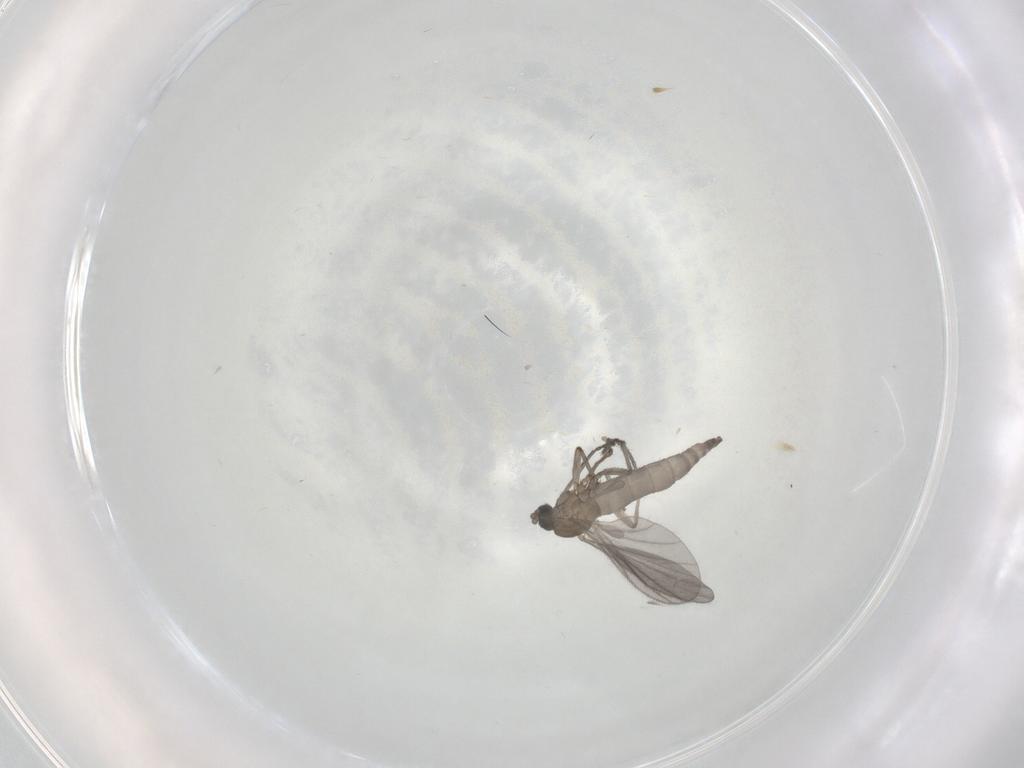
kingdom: Animalia
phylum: Arthropoda
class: Insecta
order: Diptera
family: Sciaridae
